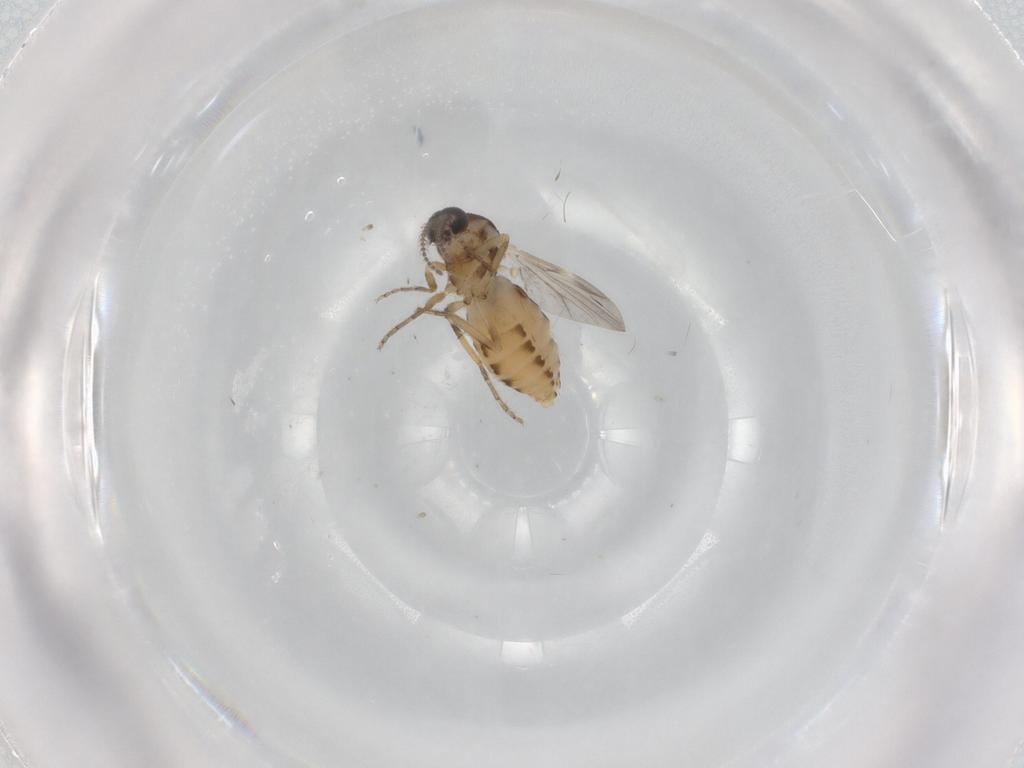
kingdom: Animalia
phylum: Arthropoda
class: Insecta
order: Diptera
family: Ceratopogonidae
